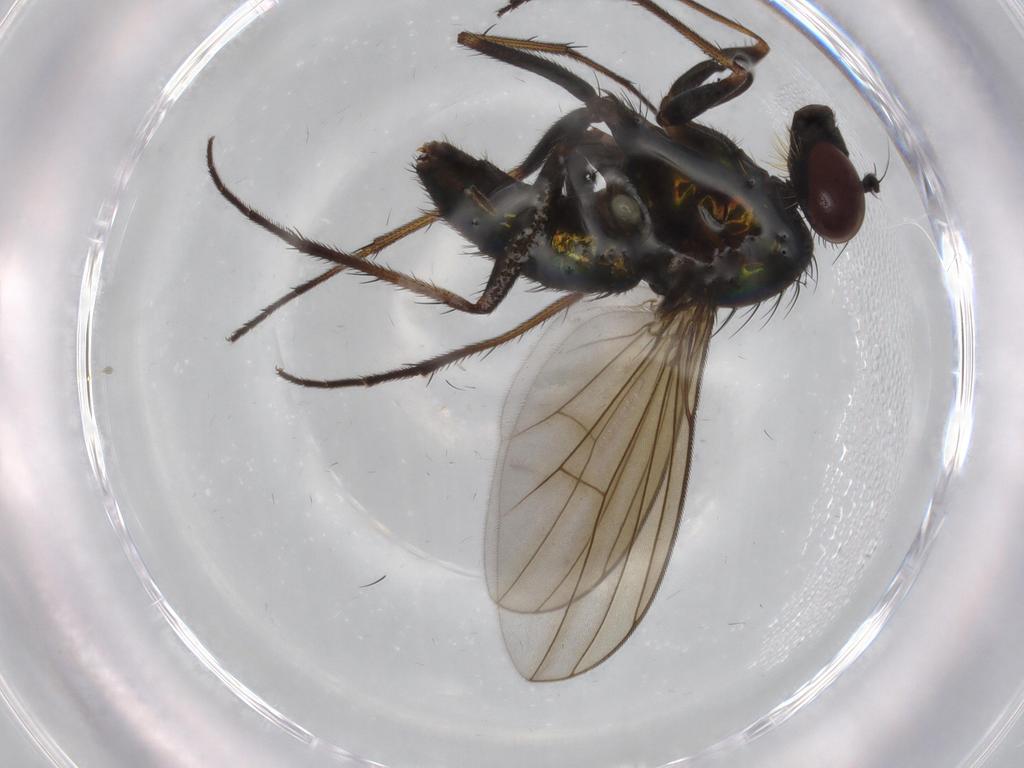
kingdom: Animalia
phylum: Arthropoda
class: Insecta
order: Diptera
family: Dolichopodidae
